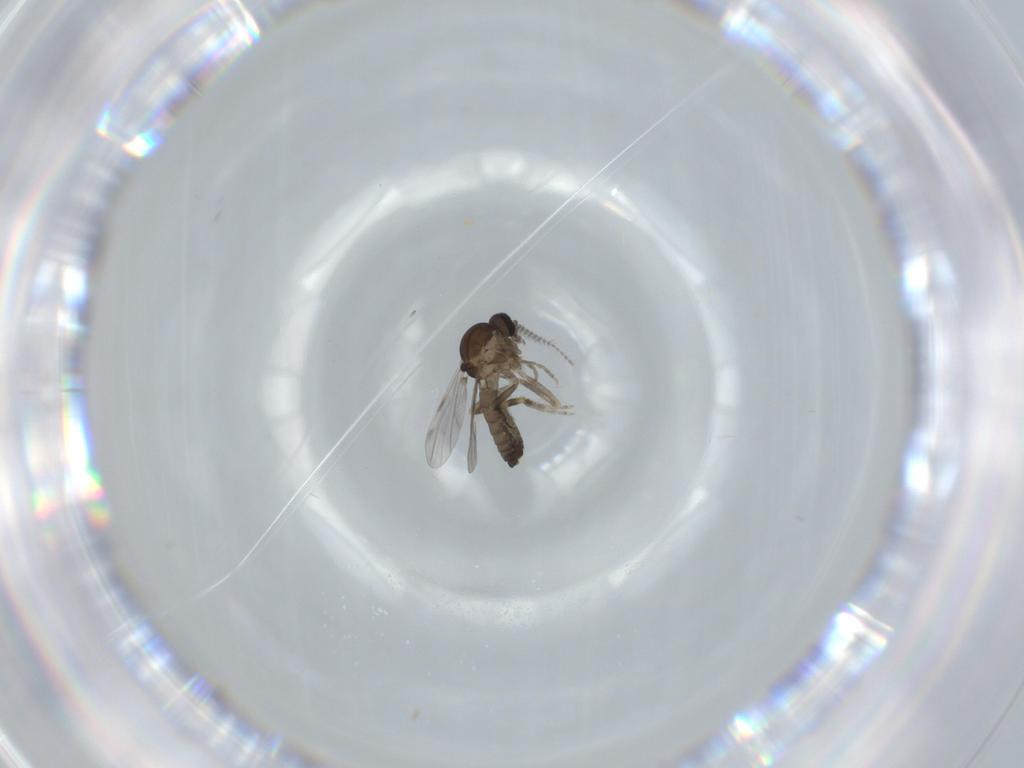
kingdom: Animalia
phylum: Arthropoda
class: Insecta
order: Diptera
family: Ceratopogonidae
